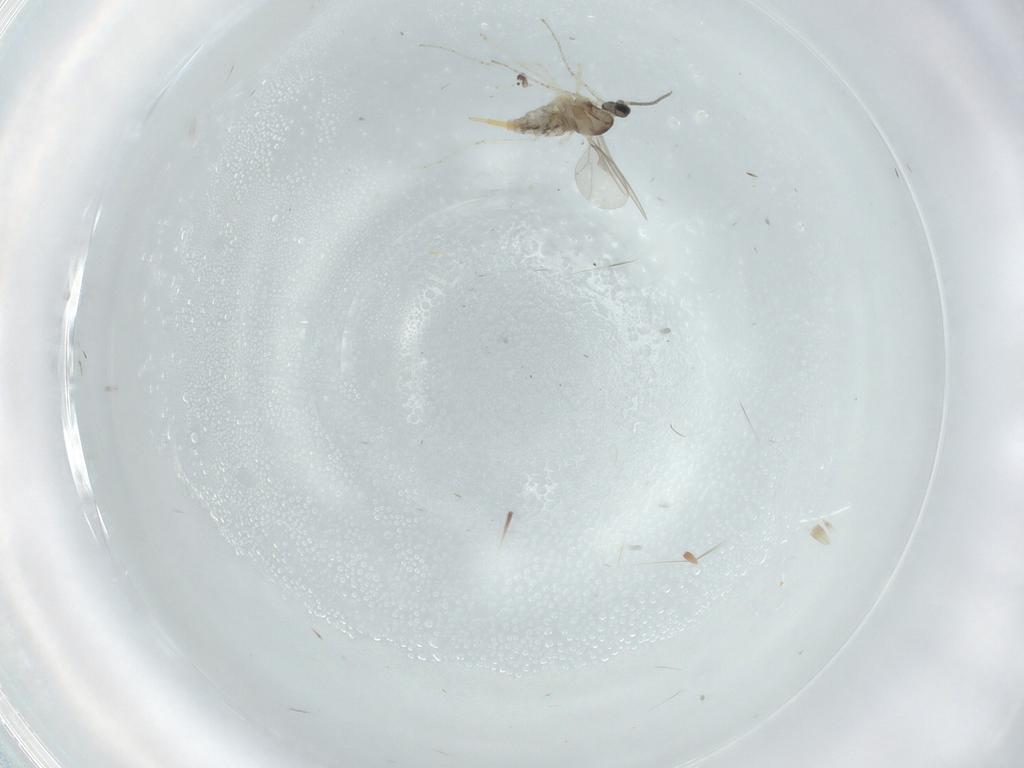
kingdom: Animalia
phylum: Arthropoda
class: Insecta
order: Diptera
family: Cecidomyiidae
